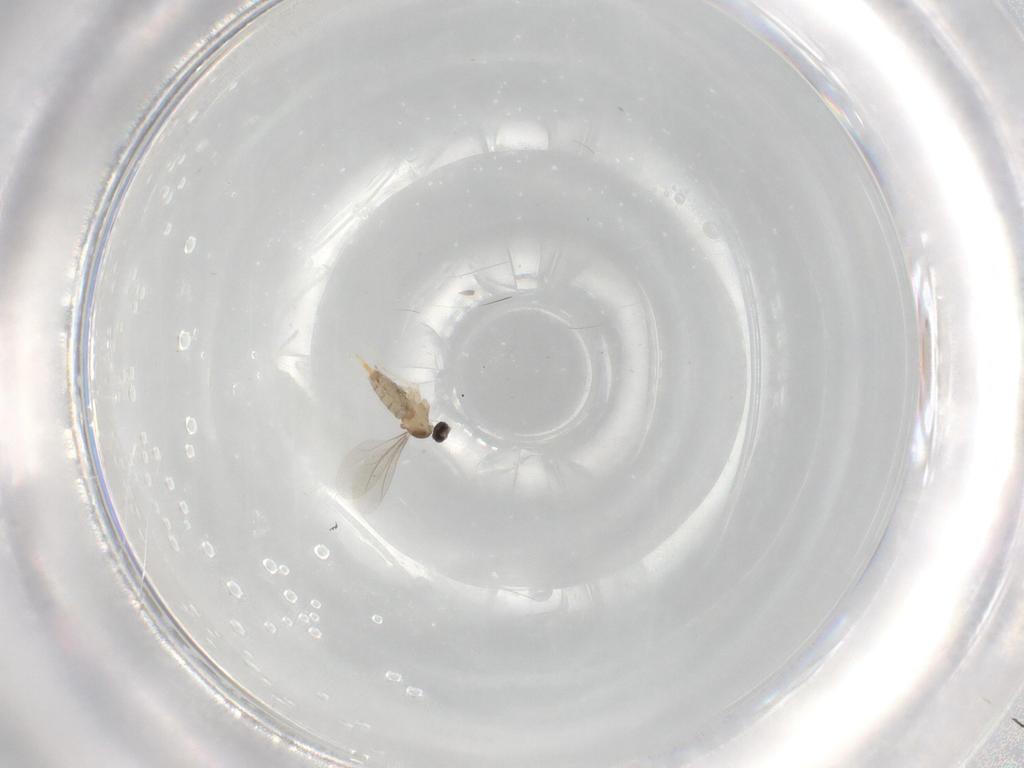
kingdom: Animalia
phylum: Arthropoda
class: Insecta
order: Diptera
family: Cecidomyiidae
